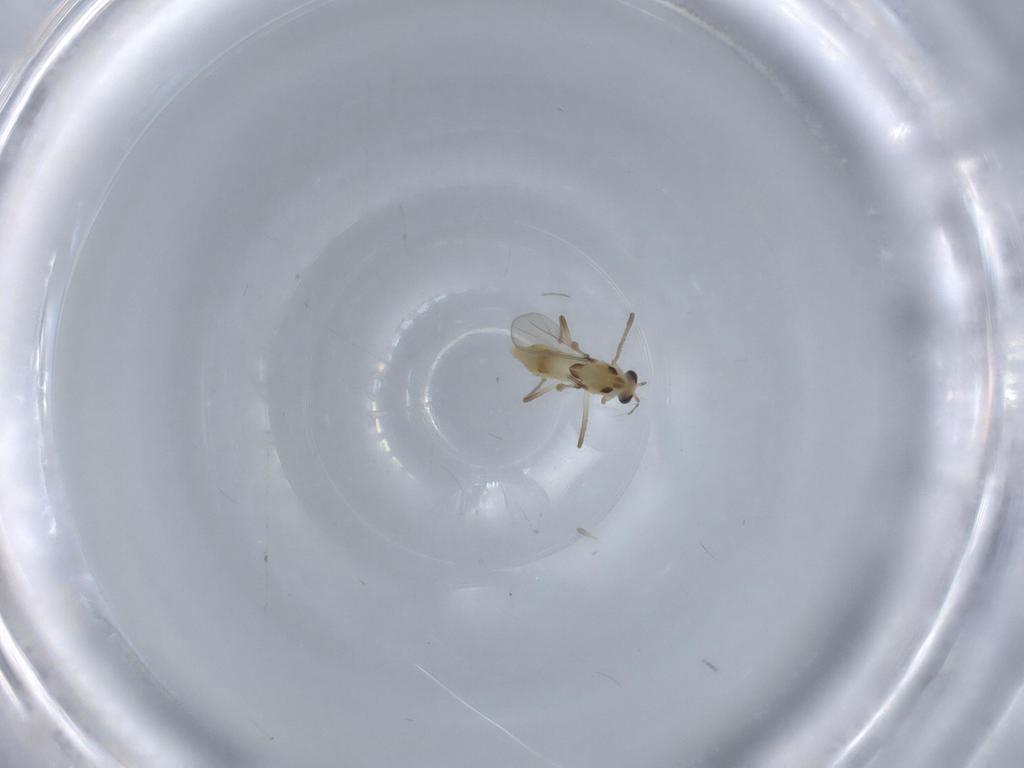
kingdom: Animalia
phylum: Arthropoda
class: Insecta
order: Diptera
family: Chironomidae
